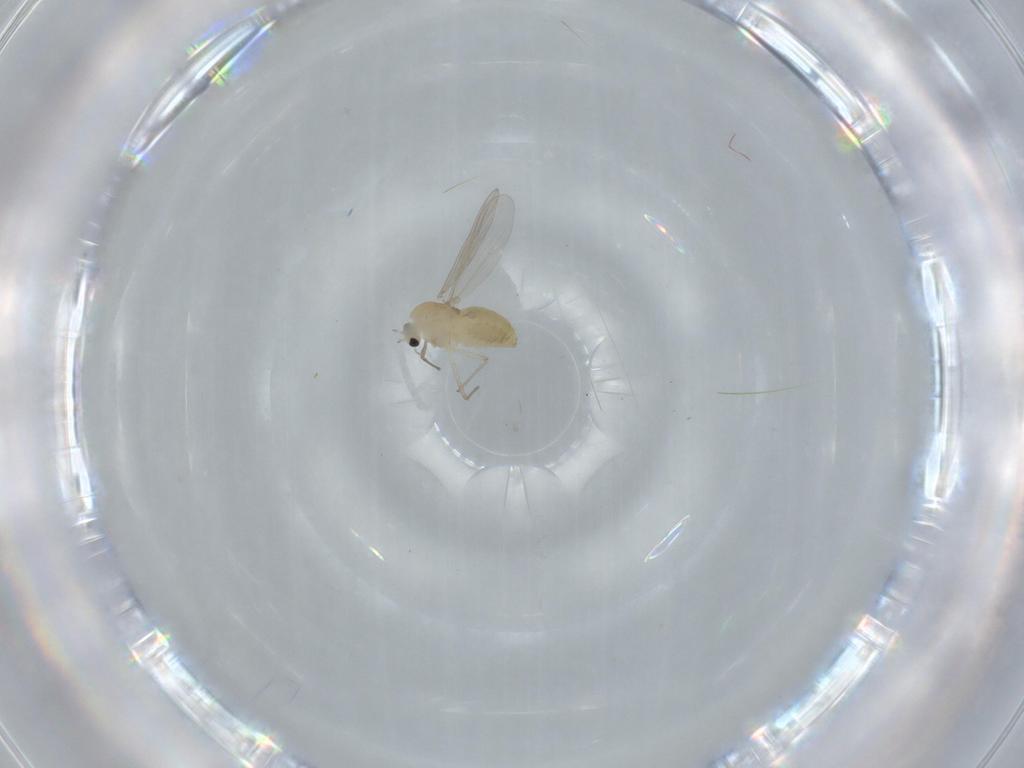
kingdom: Animalia
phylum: Arthropoda
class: Insecta
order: Diptera
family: Chironomidae
